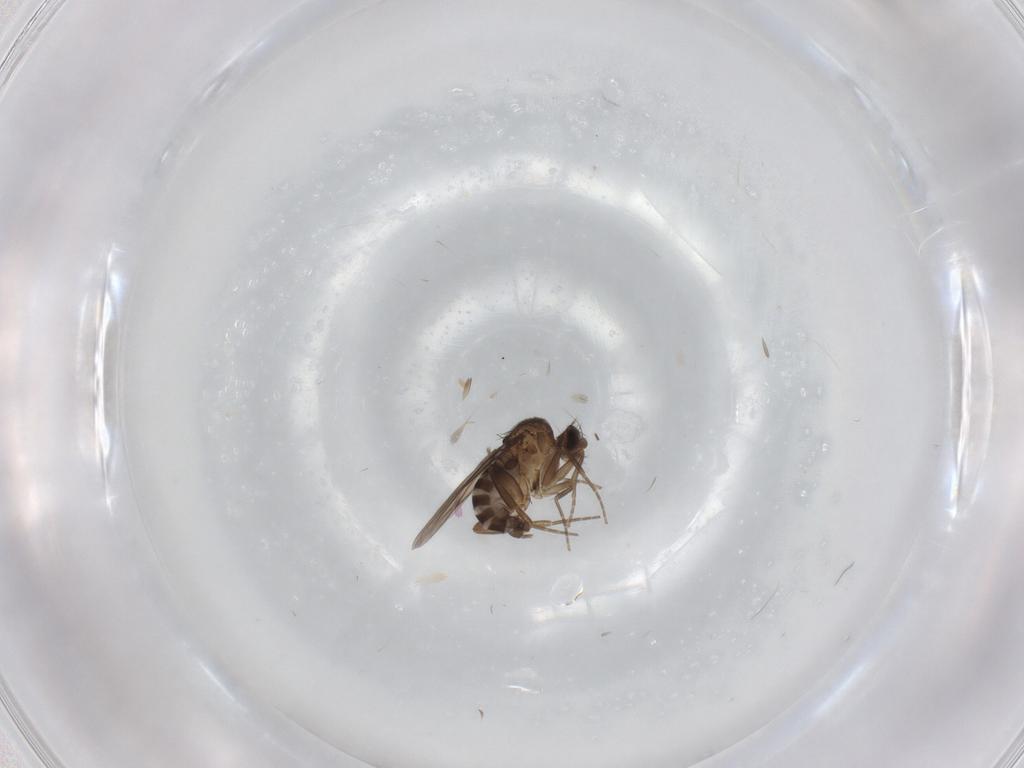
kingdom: Animalia
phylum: Arthropoda
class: Insecta
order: Diptera
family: Phoridae
